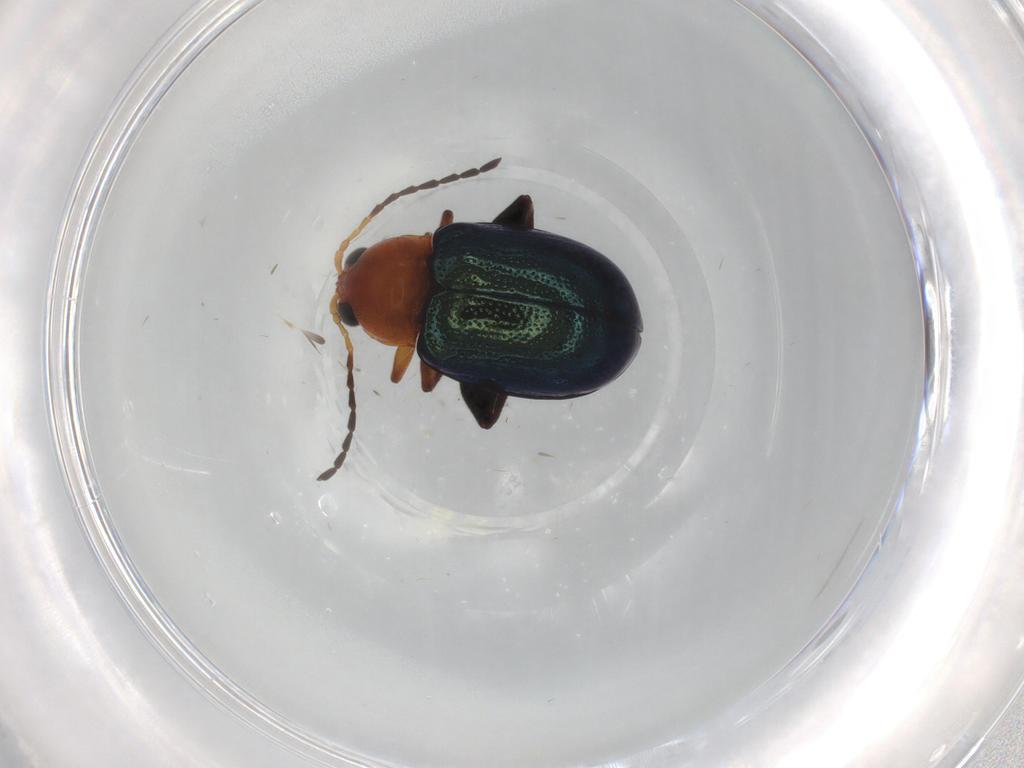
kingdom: Animalia
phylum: Arthropoda
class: Insecta
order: Coleoptera
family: Chrysomelidae
